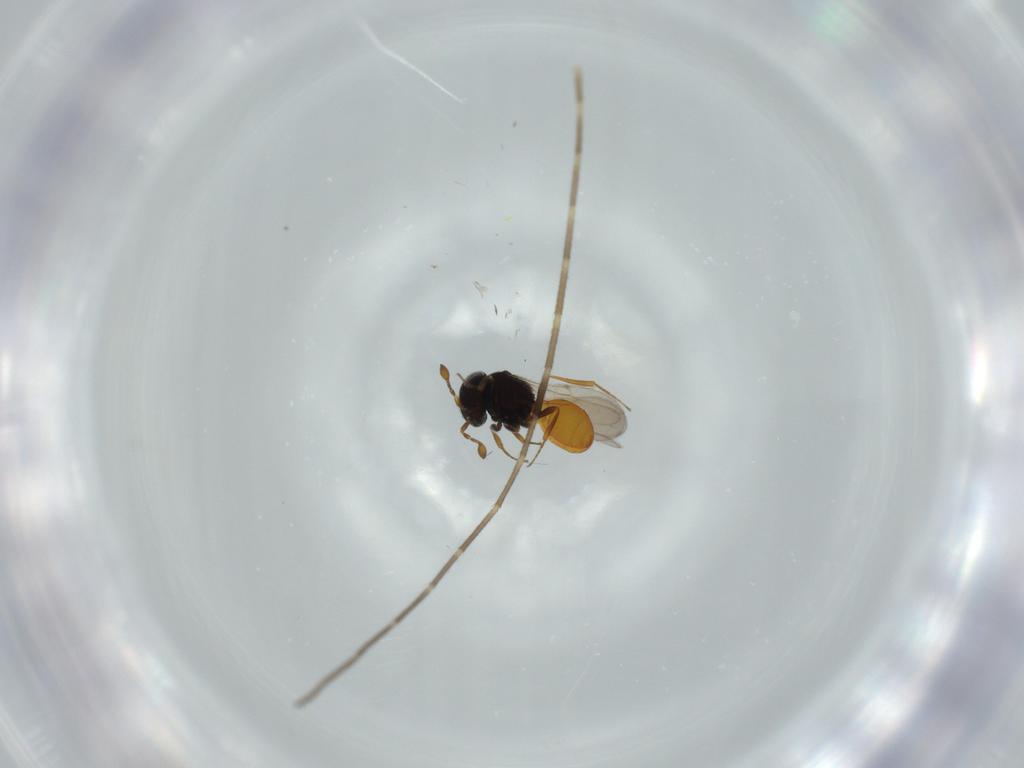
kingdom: Animalia
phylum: Arthropoda
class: Insecta
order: Hymenoptera
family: Scelionidae
